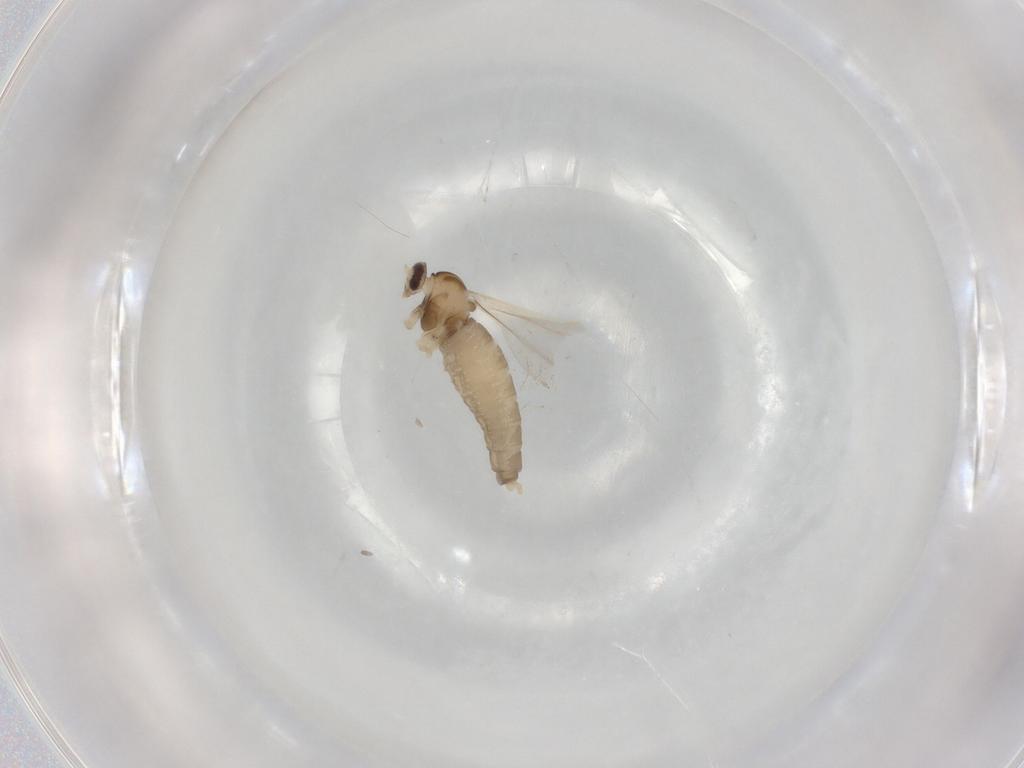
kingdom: Animalia
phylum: Arthropoda
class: Insecta
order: Diptera
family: Cecidomyiidae
